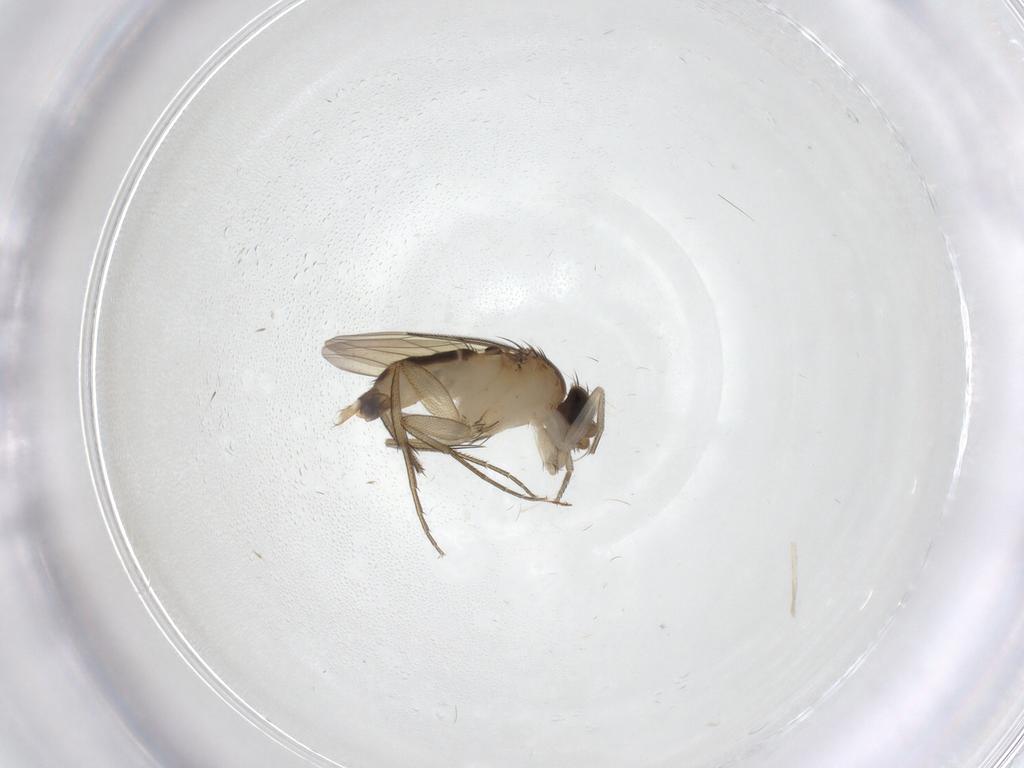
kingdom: Animalia
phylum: Arthropoda
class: Insecta
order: Diptera
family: Phoridae
